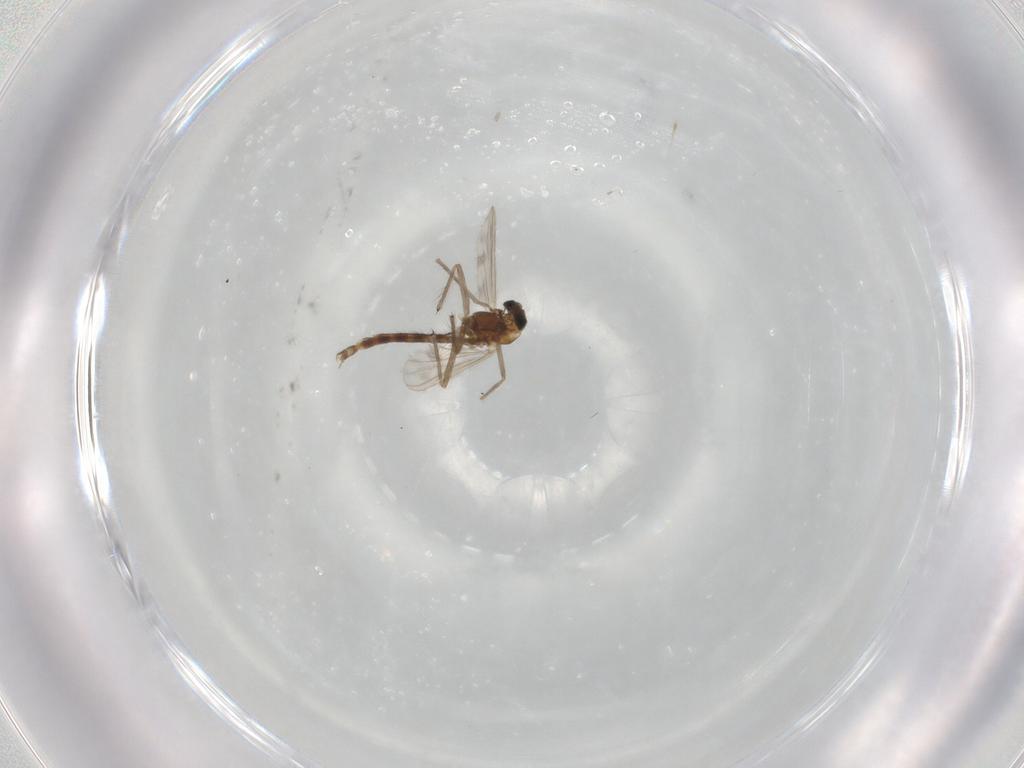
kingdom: Animalia
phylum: Arthropoda
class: Insecta
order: Diptera
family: Chironomidae
